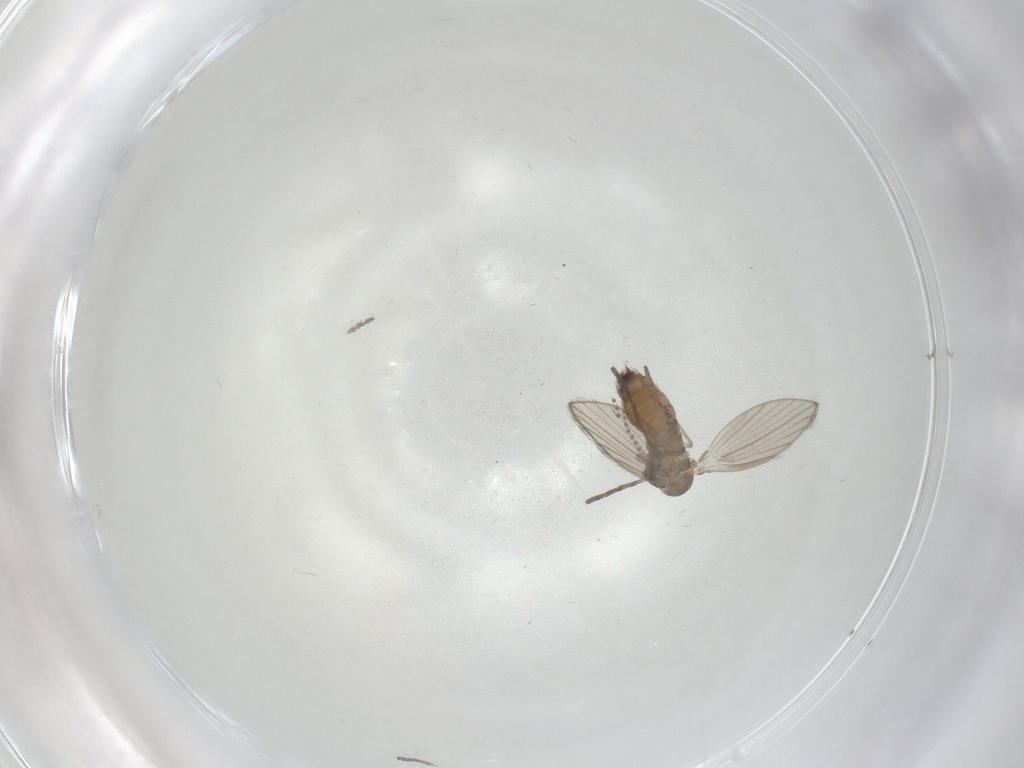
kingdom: Animalia
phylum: Arthropoda
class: Insecta
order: Diptera
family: Psychodidae
